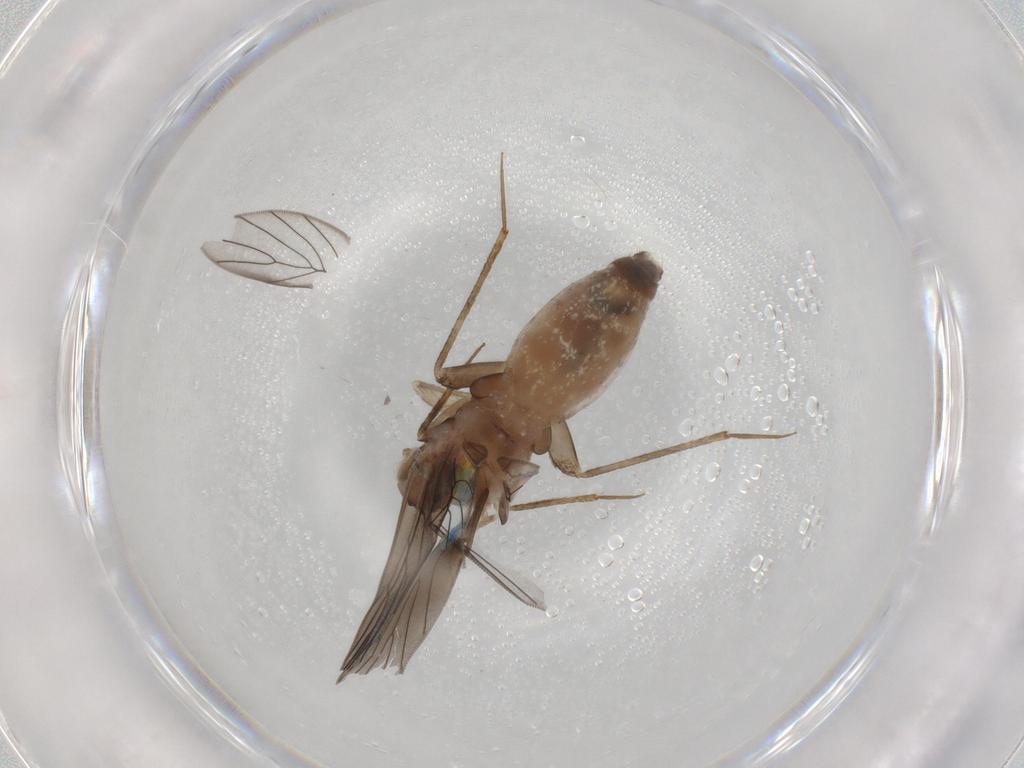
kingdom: Animalia
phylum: Arthropoda
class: Insecta
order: Psocodea
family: Lepidopsocidae
